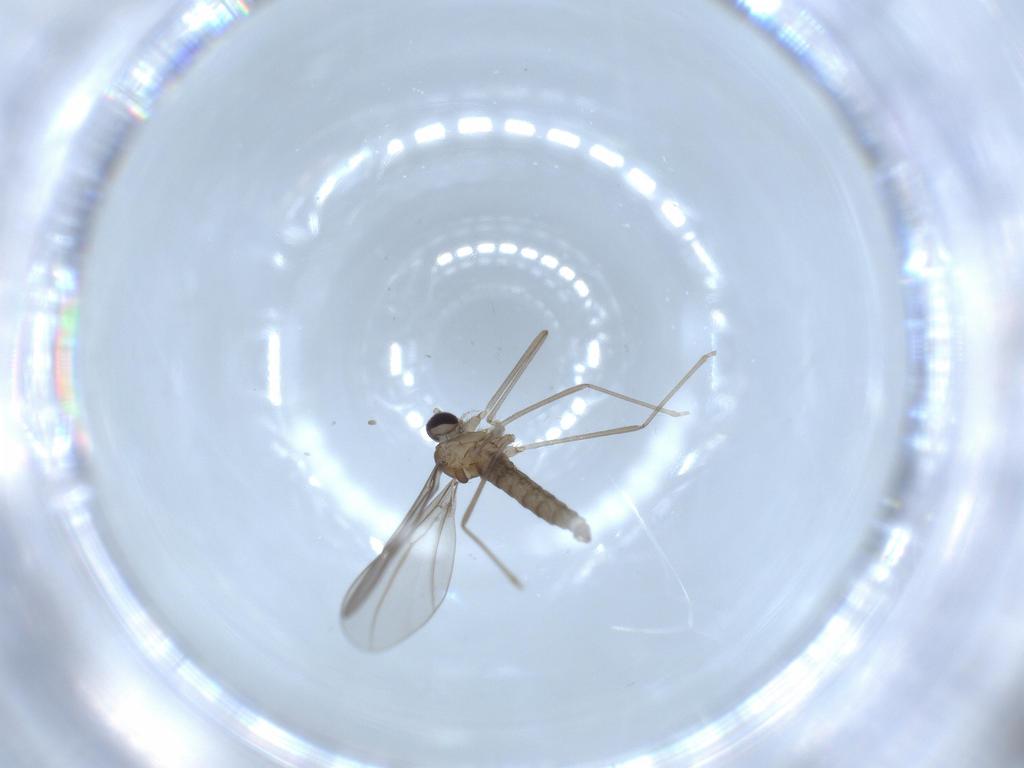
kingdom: Animalia
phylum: Arthropoda
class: Insecta
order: Diptera
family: Cecidomyiidae
